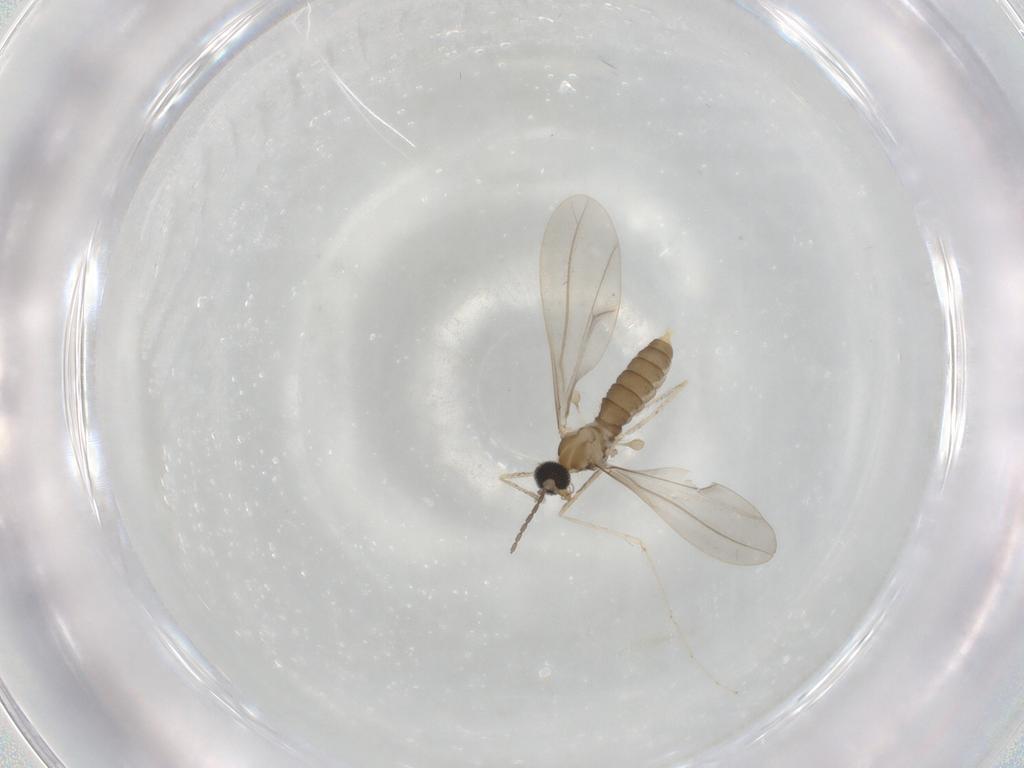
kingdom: Animalia
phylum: Arthropoda
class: Insecta
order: Diptera
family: Cecidomyiidae
